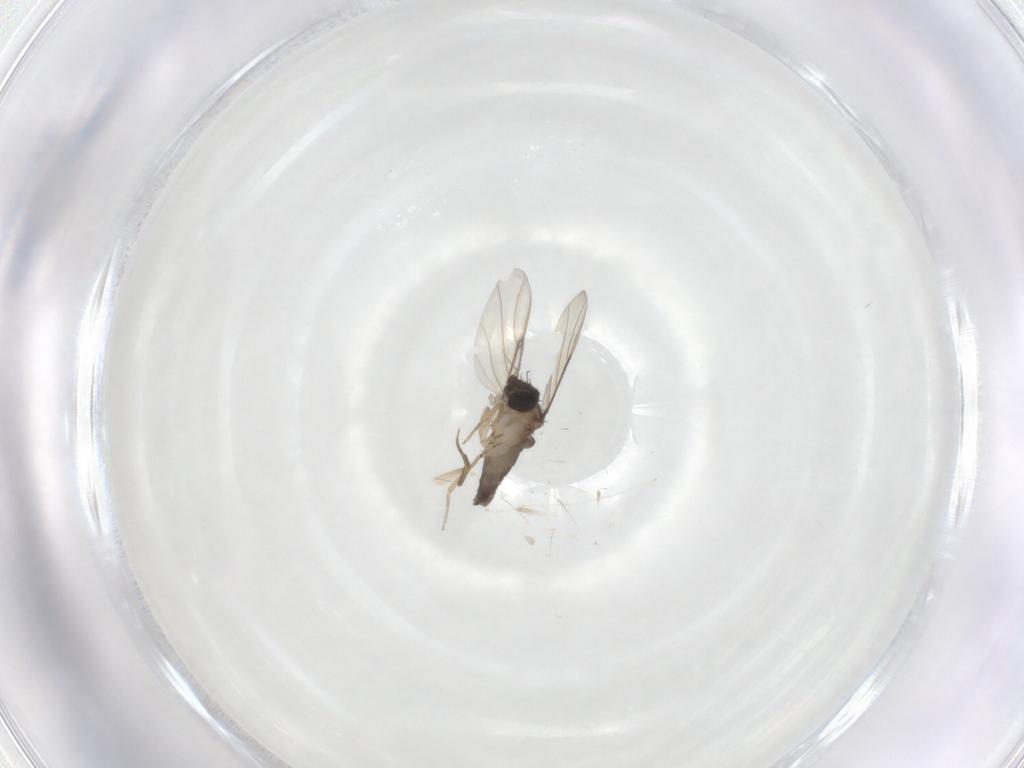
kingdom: Animalia
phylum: Arthropoda
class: Insecta
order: Diptera
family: Phoridae
